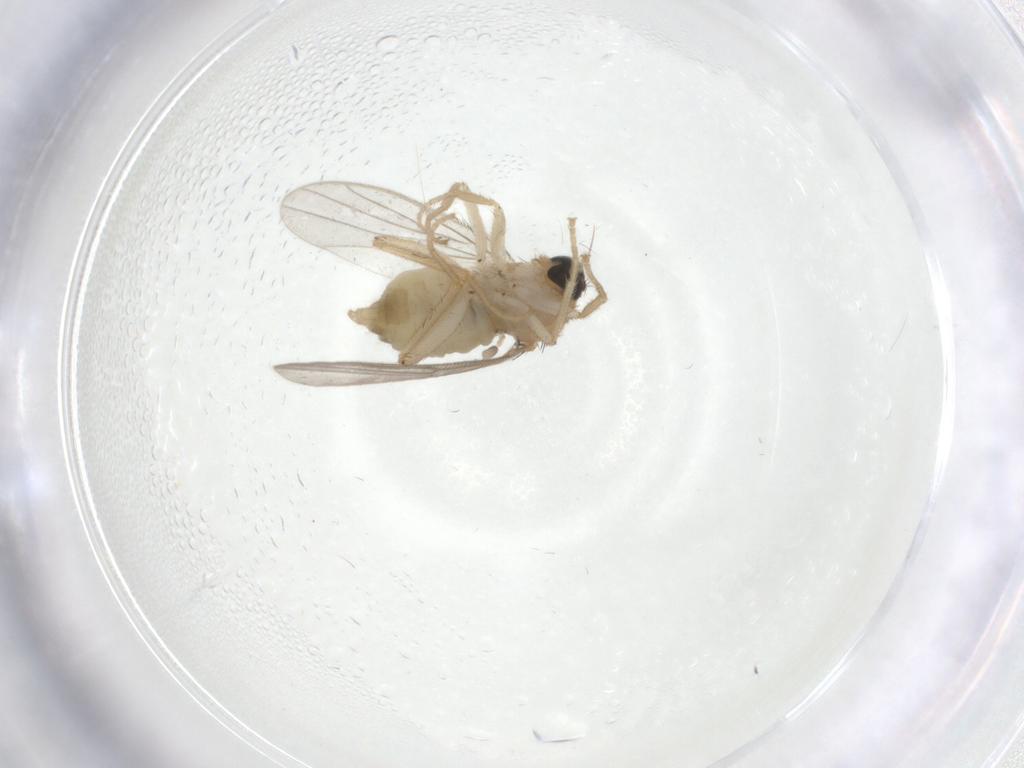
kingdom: Animalia
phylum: Arthropoda
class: Insecta
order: Diptera
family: Hybotidae
